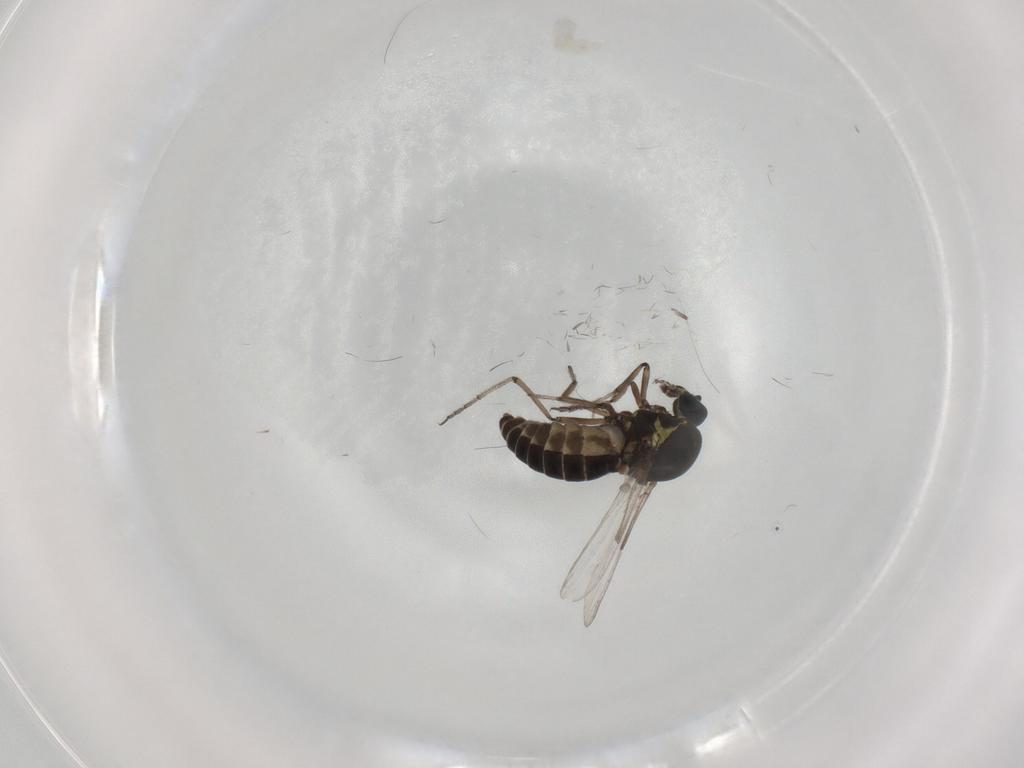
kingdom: Animalia
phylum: Arthropoda
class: Insecta
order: Diptera
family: Ceratopogonidae
